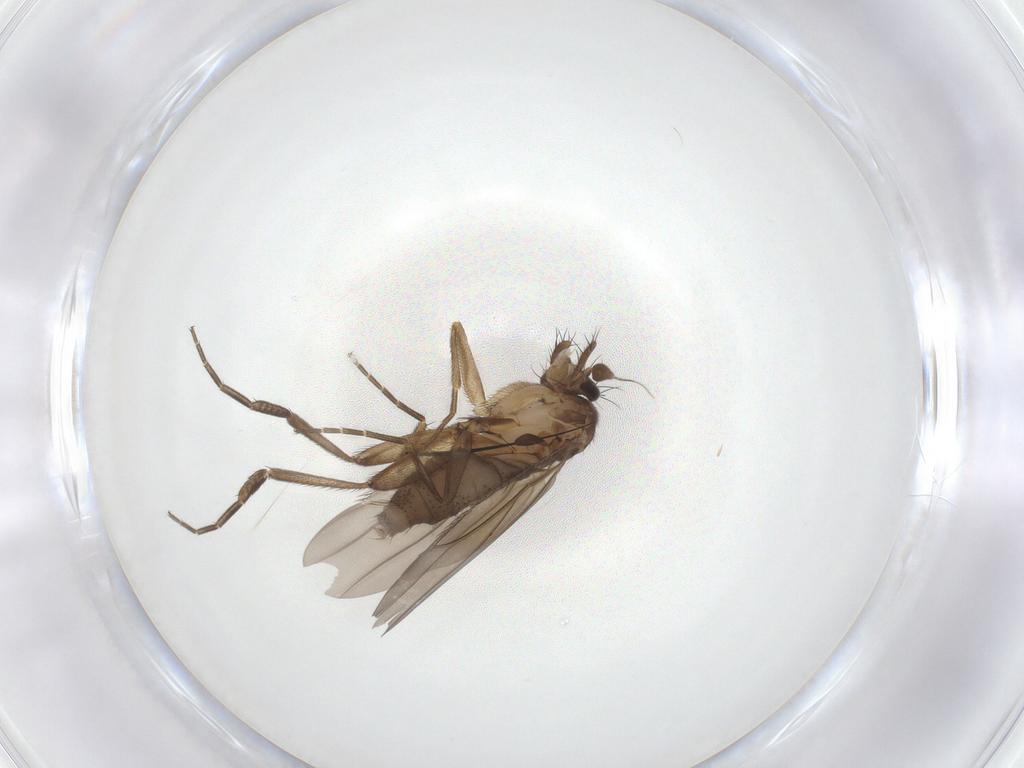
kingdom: Animalia
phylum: Arthropoda
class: Insecta
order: Diptera
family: Phoridae
